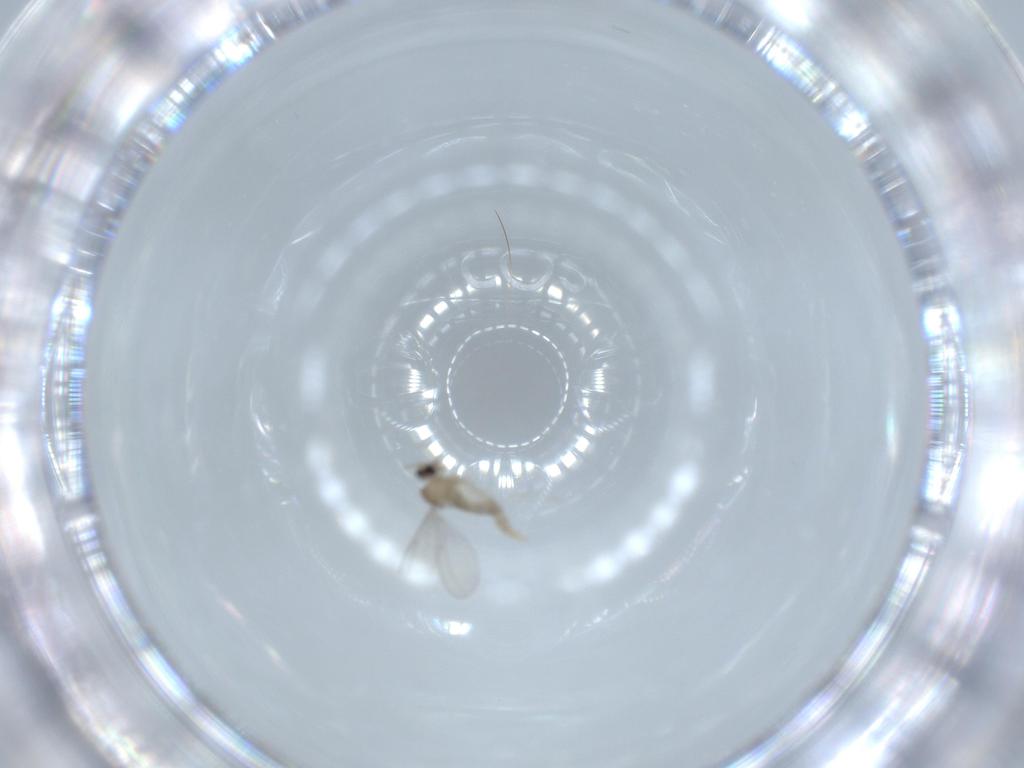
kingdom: Animalia
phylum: Arthropoda
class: Insecta
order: Diptera
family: Cecidomyiidae
